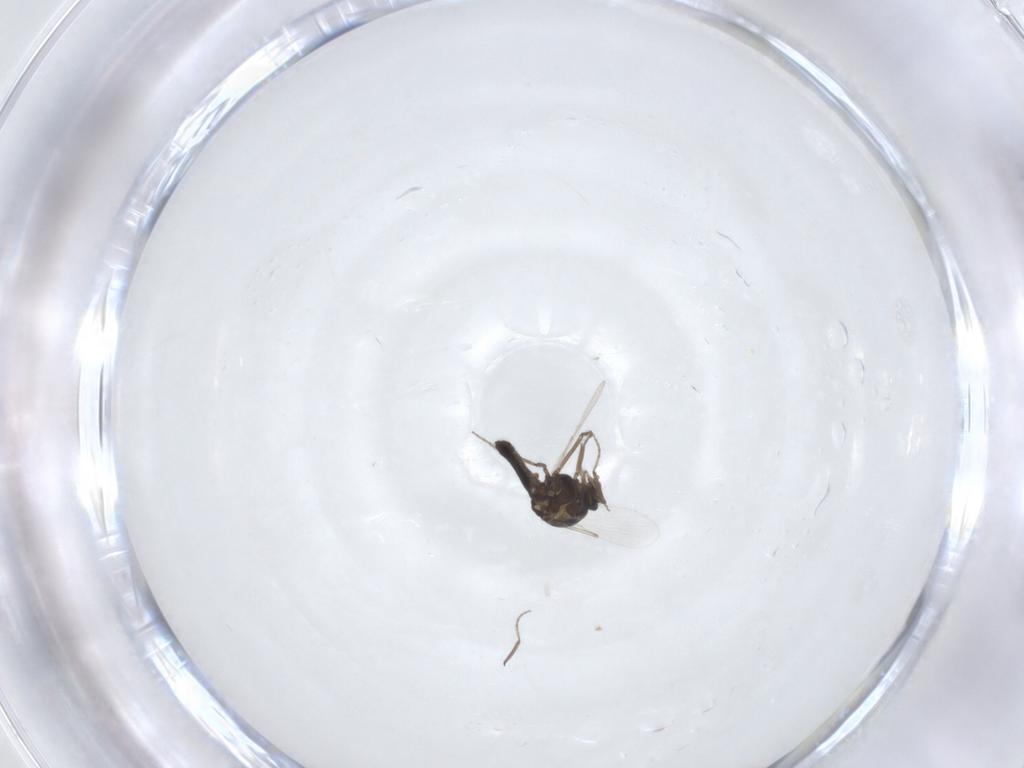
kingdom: Animalia
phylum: Arthropoda
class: Insecta
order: Diptera
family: Ceratopogonidae
